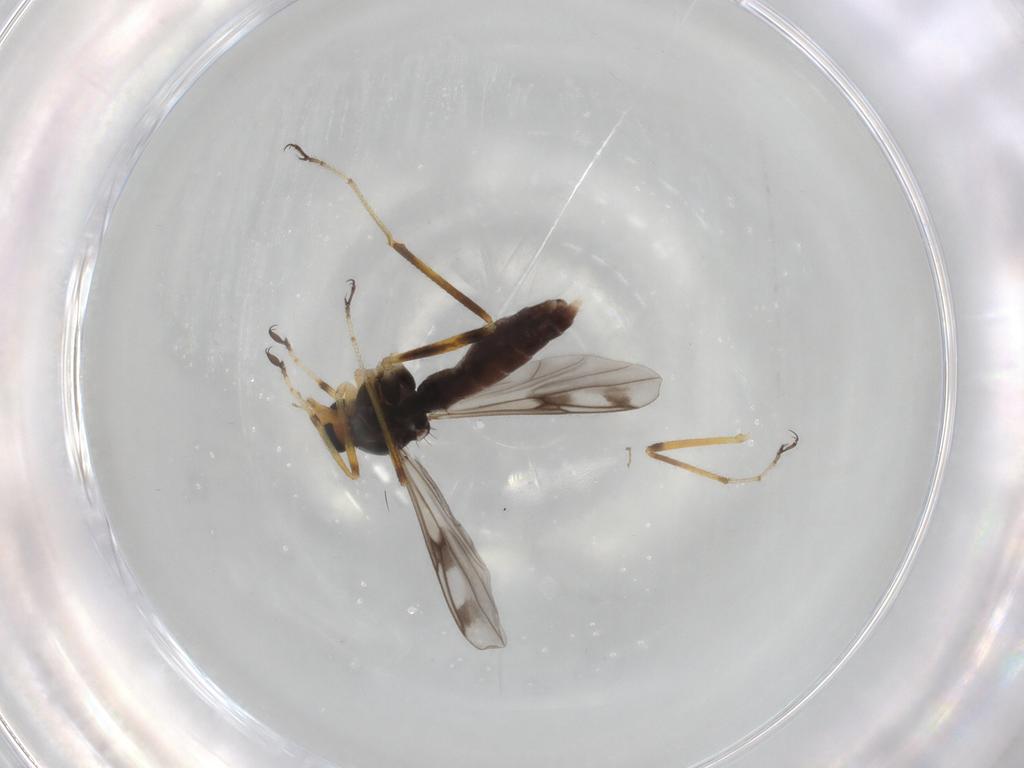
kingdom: Animalia
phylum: Arthropoda
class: Insecta
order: Diptera
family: Ceratopogonidae
